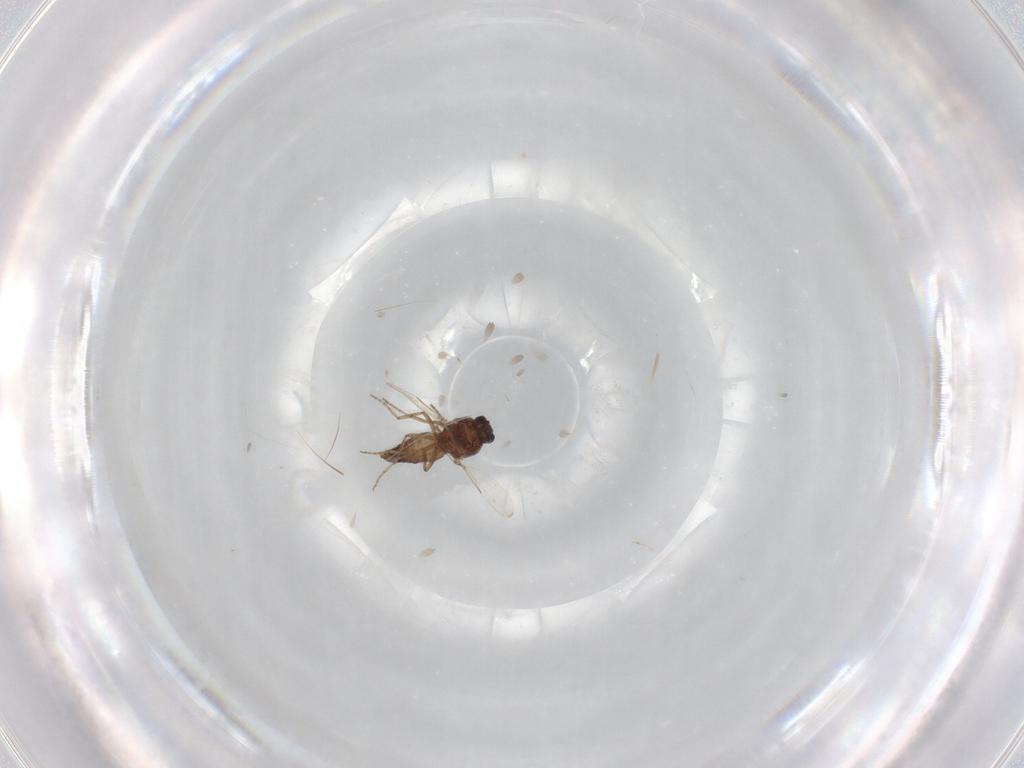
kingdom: Animalia
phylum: Arthropoda
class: Insecta
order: Diptera
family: Ceratopogonidae
